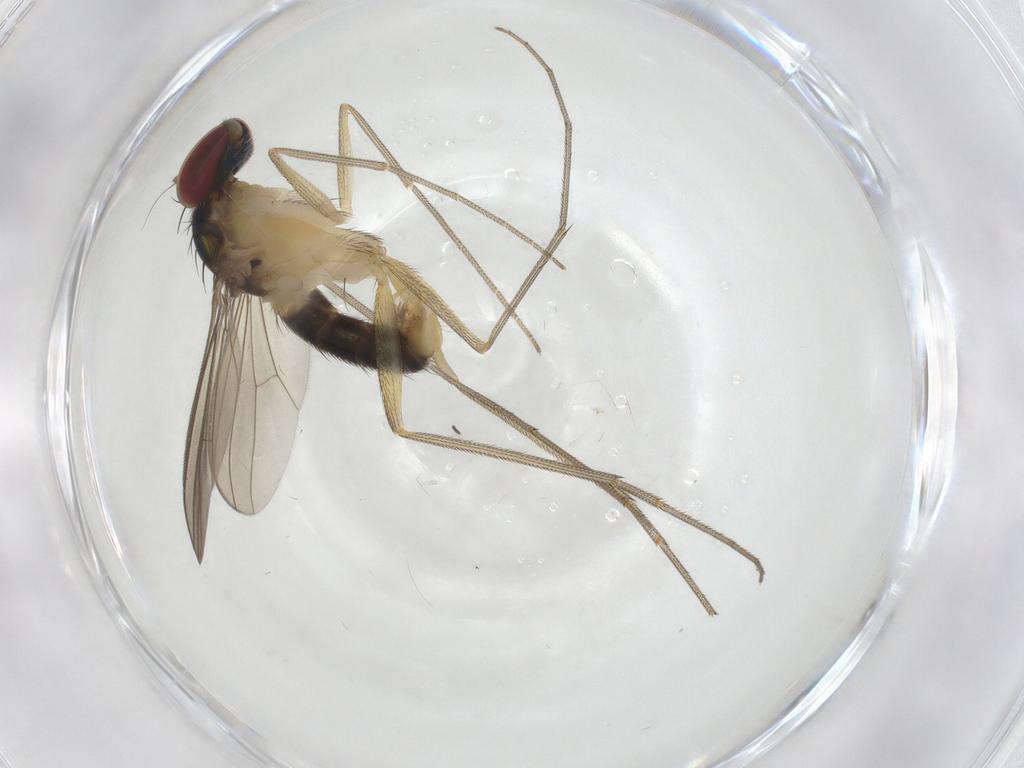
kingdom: Animalia
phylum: Arthropoda
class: Insecta
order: Diptera
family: Dolichopodidae
